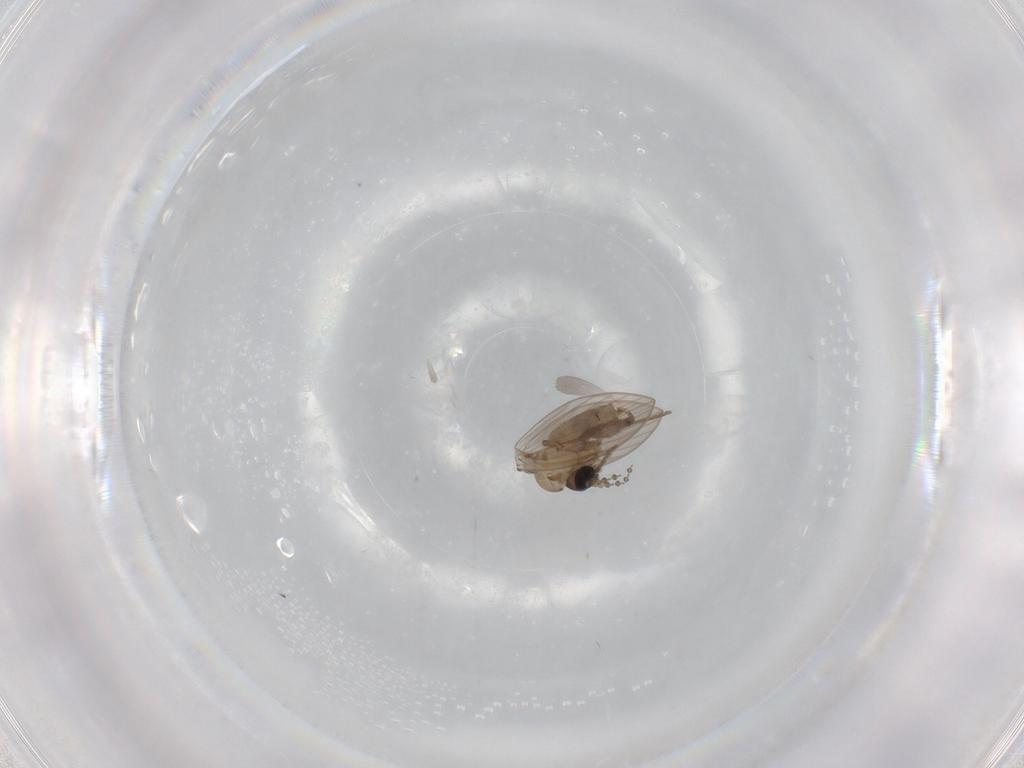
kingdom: Animalia
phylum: Arthropoda
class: Insecta
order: Diptera
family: Psychodidae
